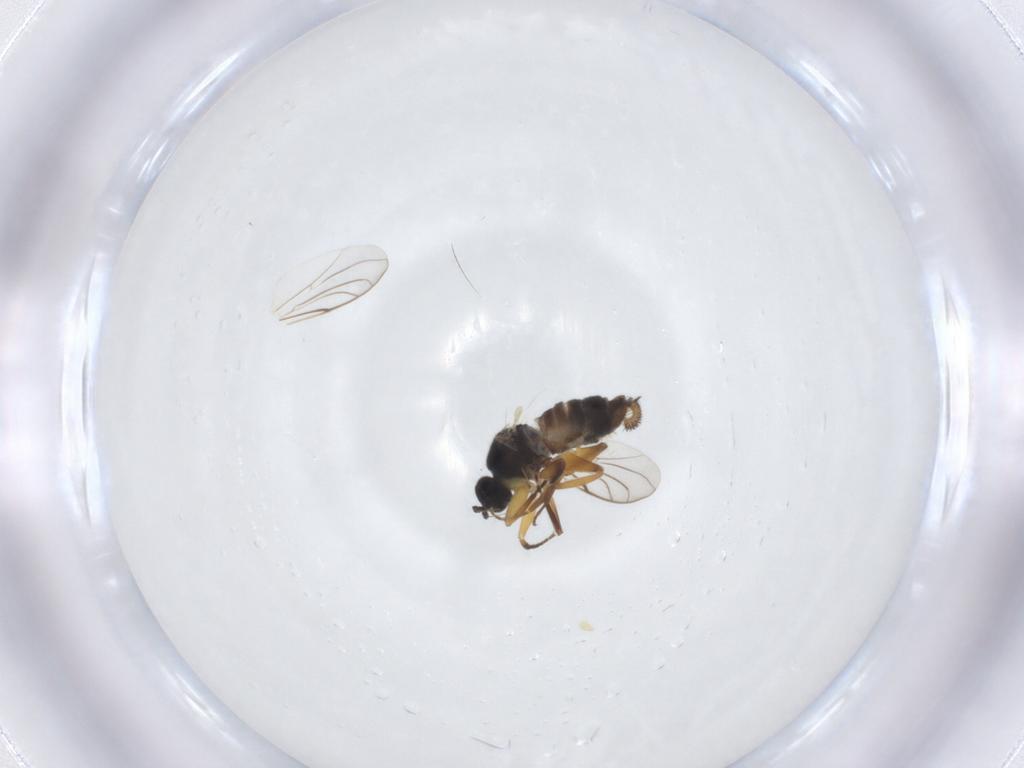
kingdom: Animalia
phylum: Arthropoda
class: Insecta
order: Diptera
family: Hybotidae
